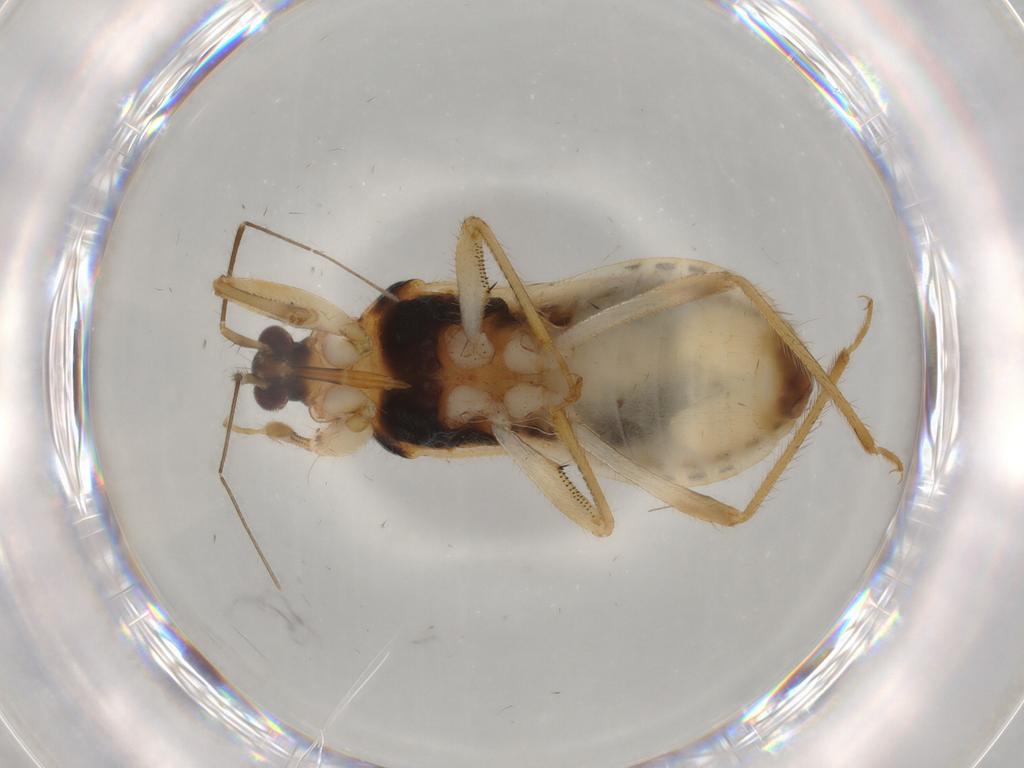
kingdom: Animalia
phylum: Arthropoda
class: Insecta
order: Hemiptera
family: Nabidae
